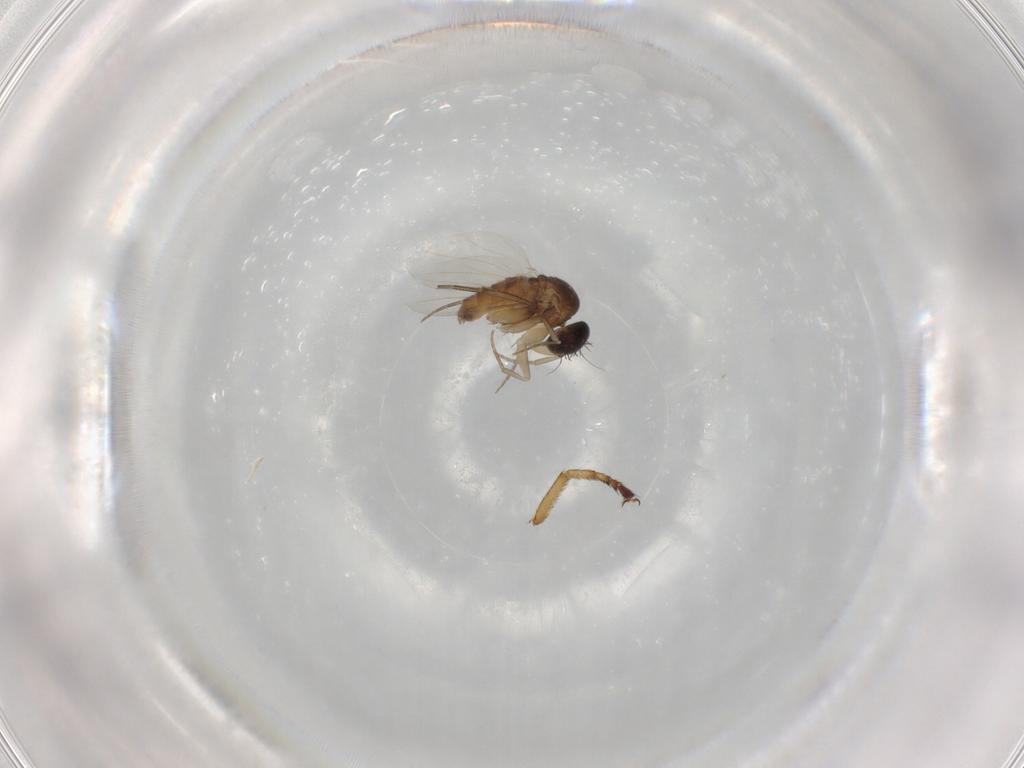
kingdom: Animalia
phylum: Arthropoda
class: Insecta
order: Diptera
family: Ulidiidae
